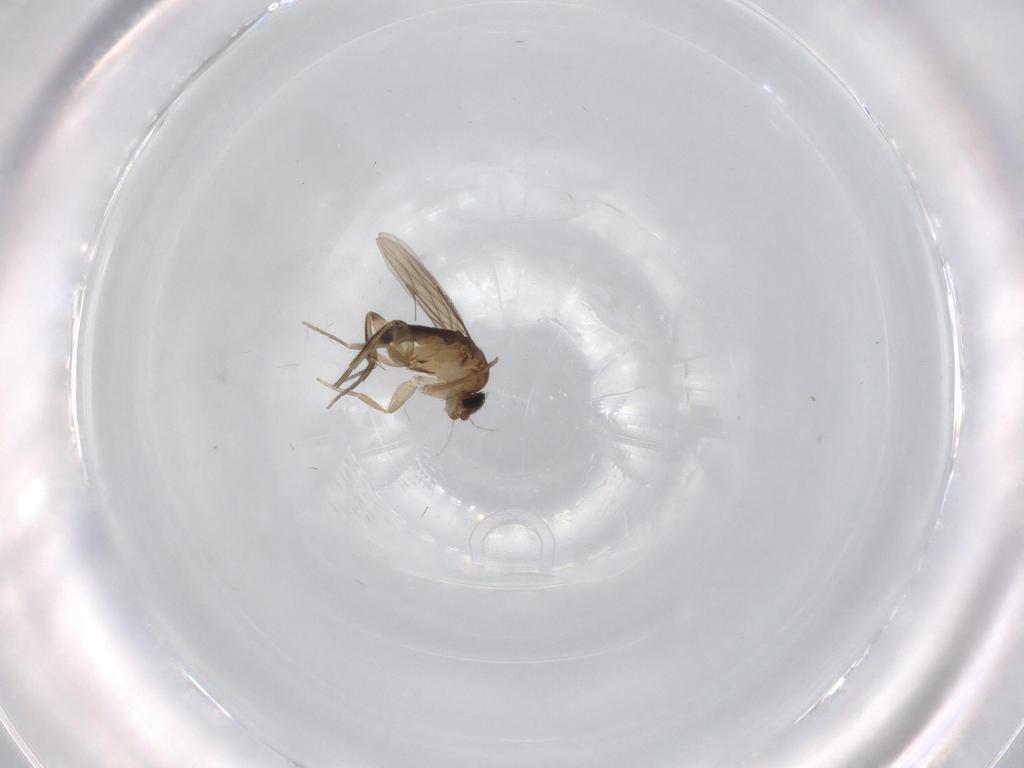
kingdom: Animalia
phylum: Arthropoda
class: Insecta
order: Diptera
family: Phoridae
